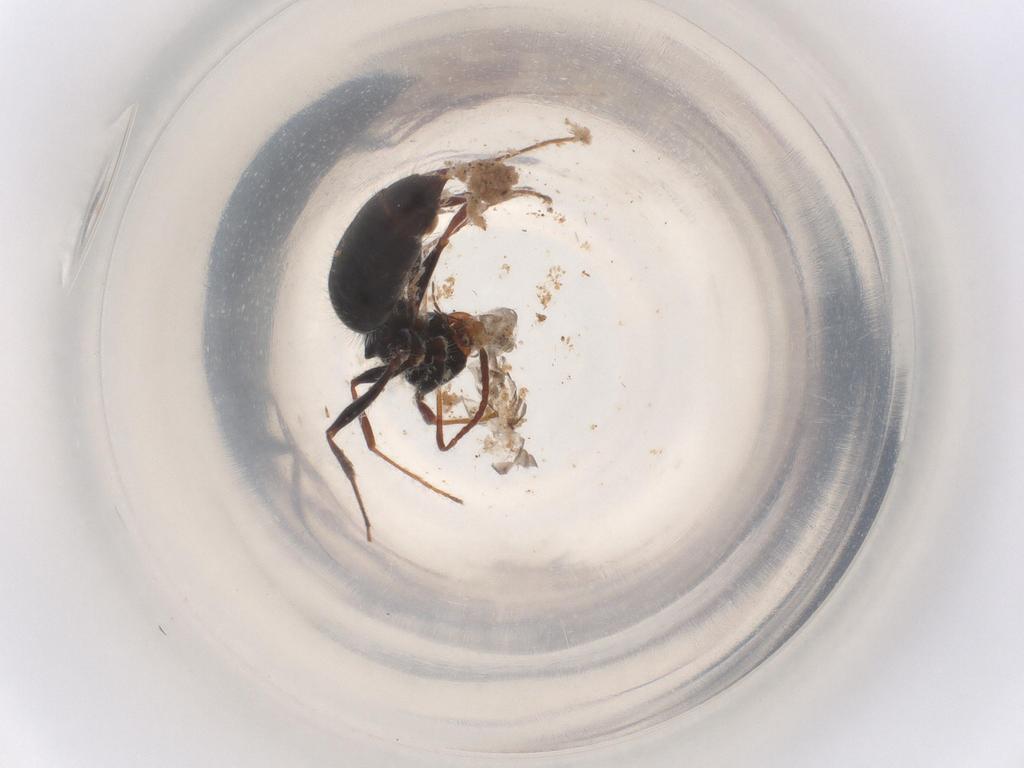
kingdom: Animalia
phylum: Arthropoda
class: Insecta
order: Hymenoptera
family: Formicidae
